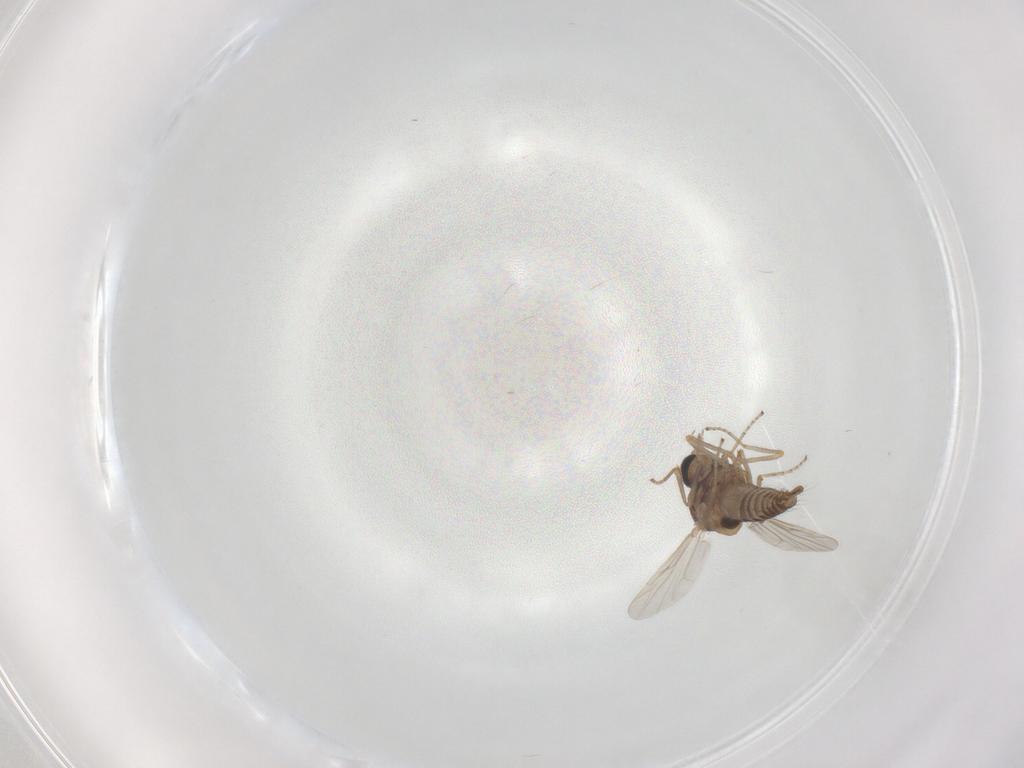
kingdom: Animalia
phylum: Arthropoda
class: Insecta
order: Diptera
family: Ceratopogonidae
